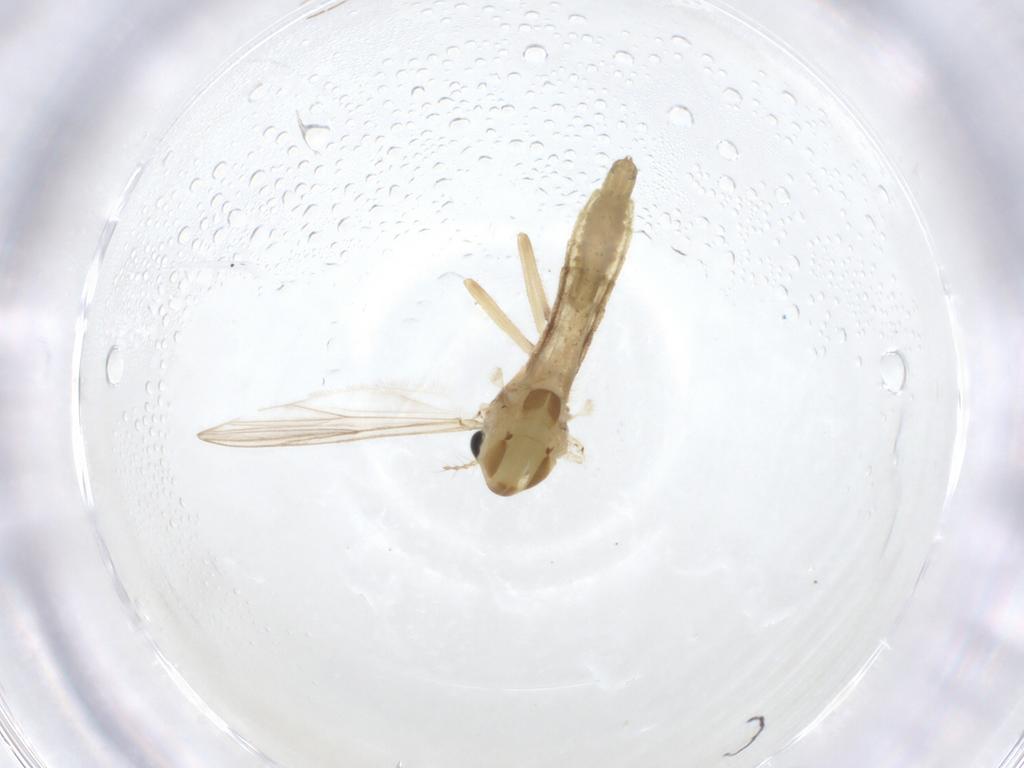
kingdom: Animalia
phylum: Arthropoda
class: Insecta
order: Diptera
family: Chironomidae
